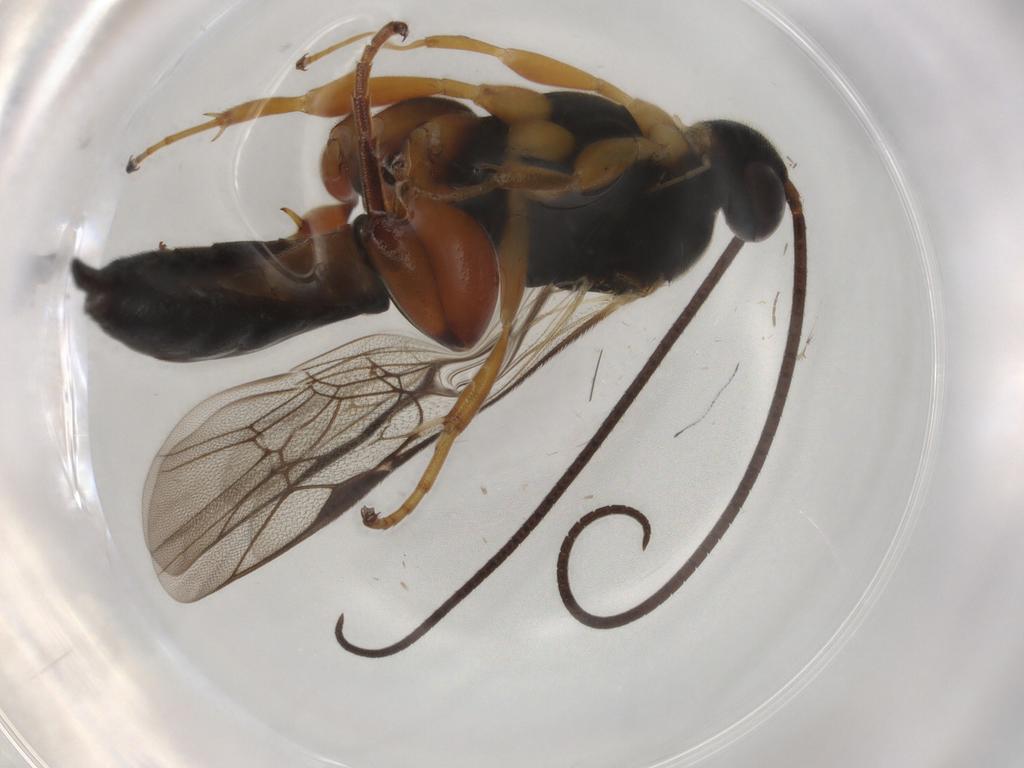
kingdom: Animalia
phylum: Arthropoda
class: Insecta
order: Hymenoptera
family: Ichneumonidae
